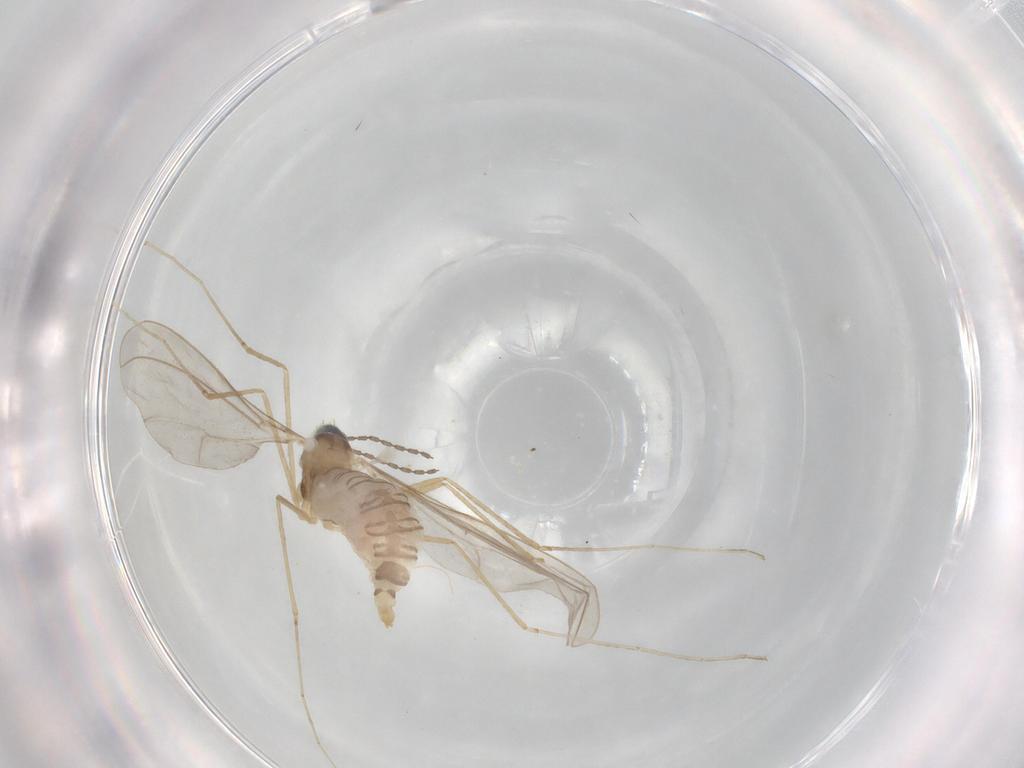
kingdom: Animalia
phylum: Arthropoda
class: Insecta
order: Diptera
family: Cecidomyiidae
